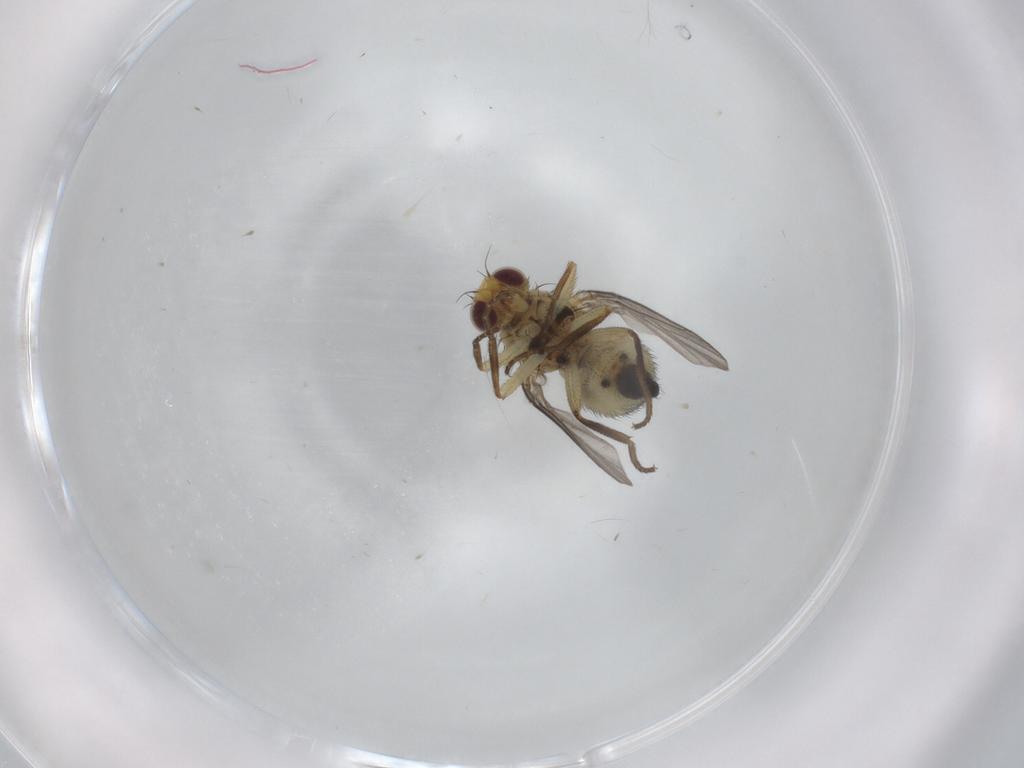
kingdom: Animalia
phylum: Arthropoda
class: Insecta
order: Diptera
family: Agromyzidae
